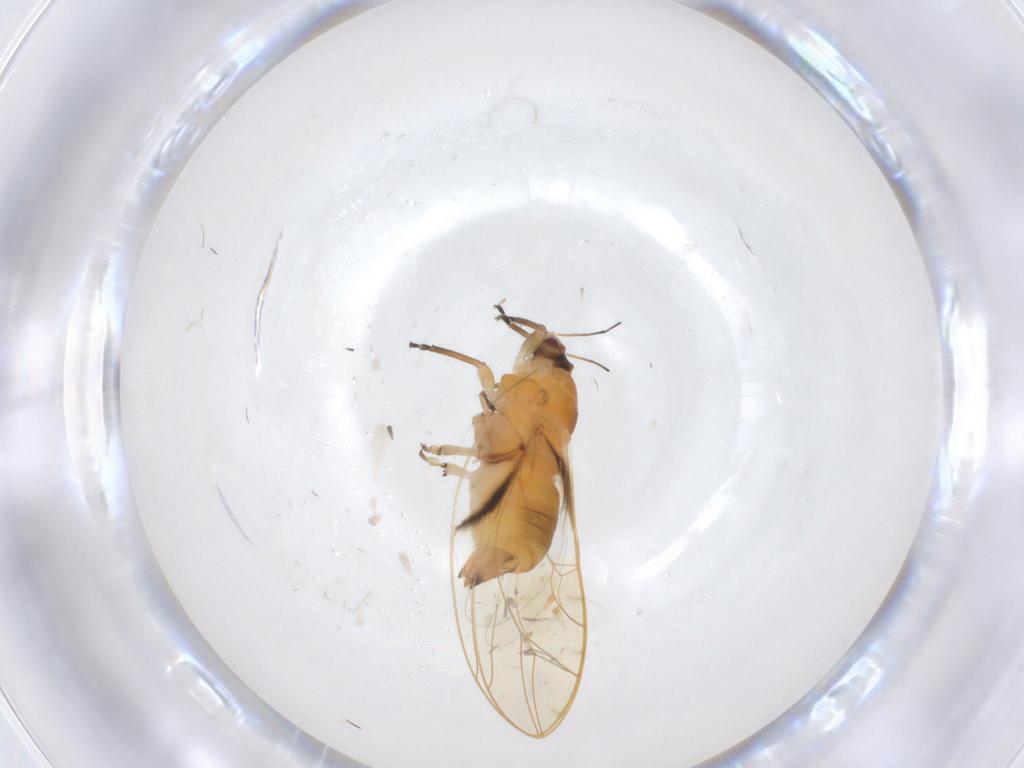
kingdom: Animalia
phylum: Arthropoda
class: Insecta
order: Hemiptera
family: Psylloidea_incertae_sedis
